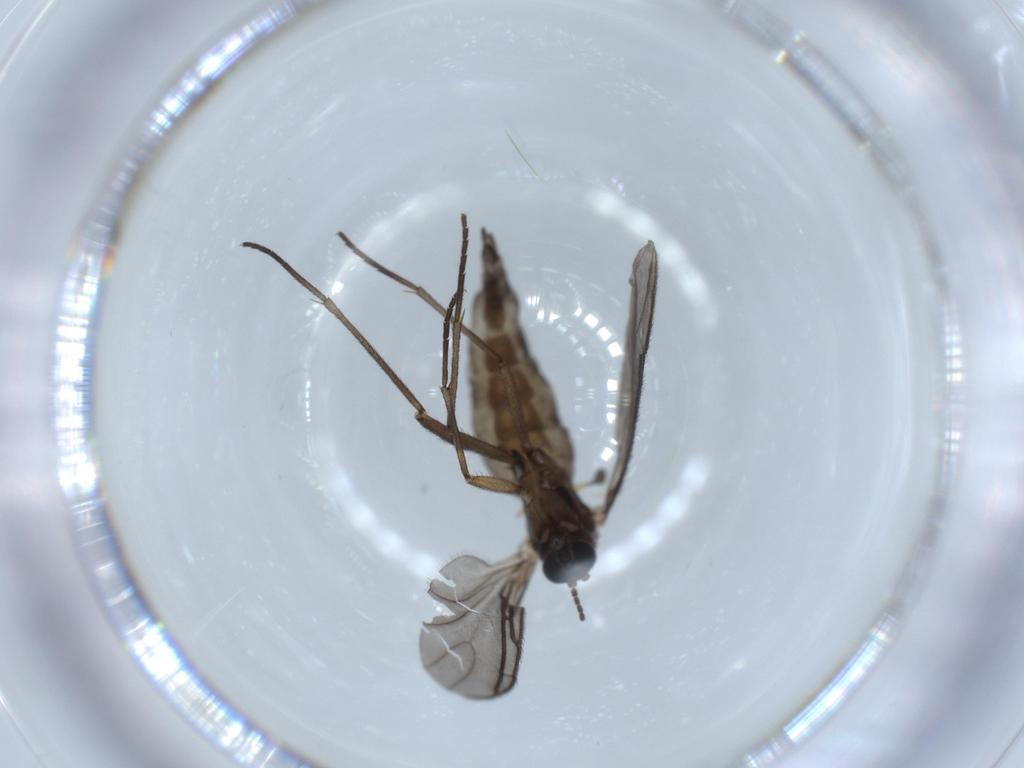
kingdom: Animalia
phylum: Arthropoda
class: Insecta
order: Diptera
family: Sciaridae
